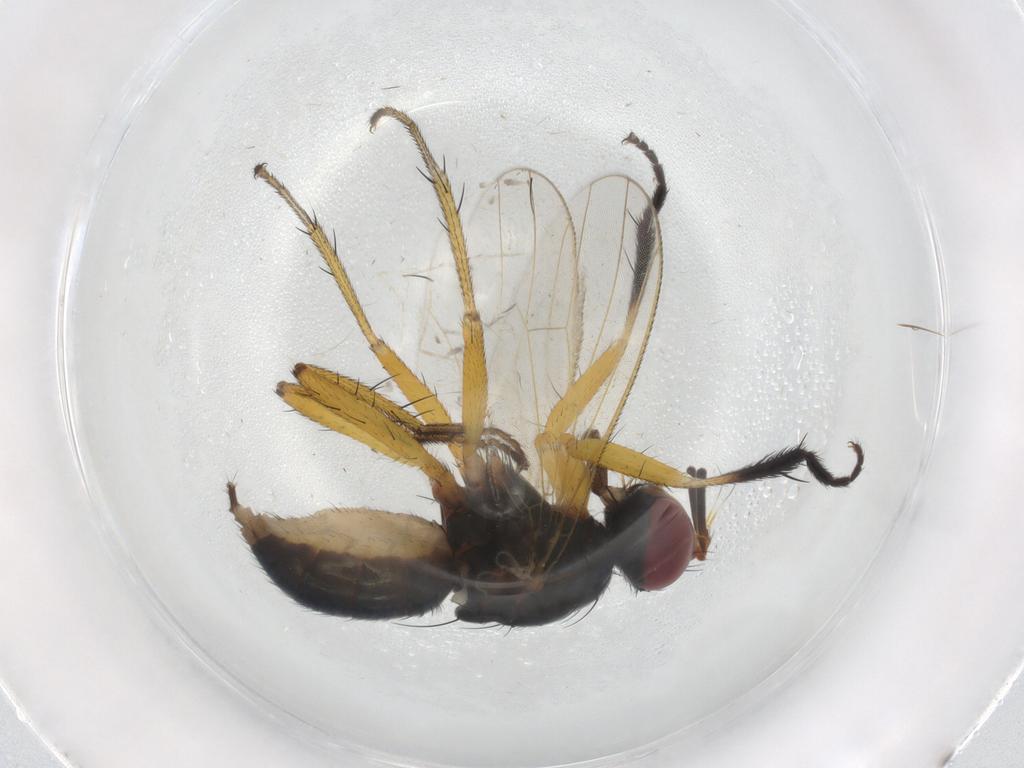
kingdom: Animalia
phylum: Arthropoda
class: Insecta
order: Diptera
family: Muscidae
